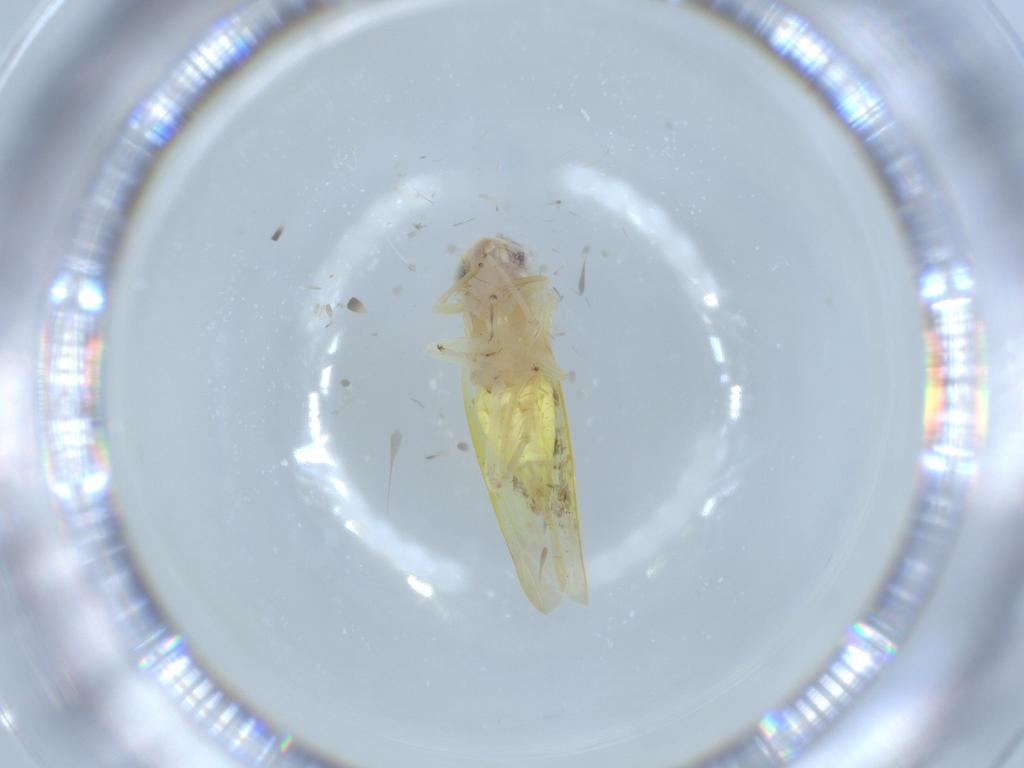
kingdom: Animalia
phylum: Arthropoda
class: Insecta
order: Hemiptera
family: Cicadellidae
